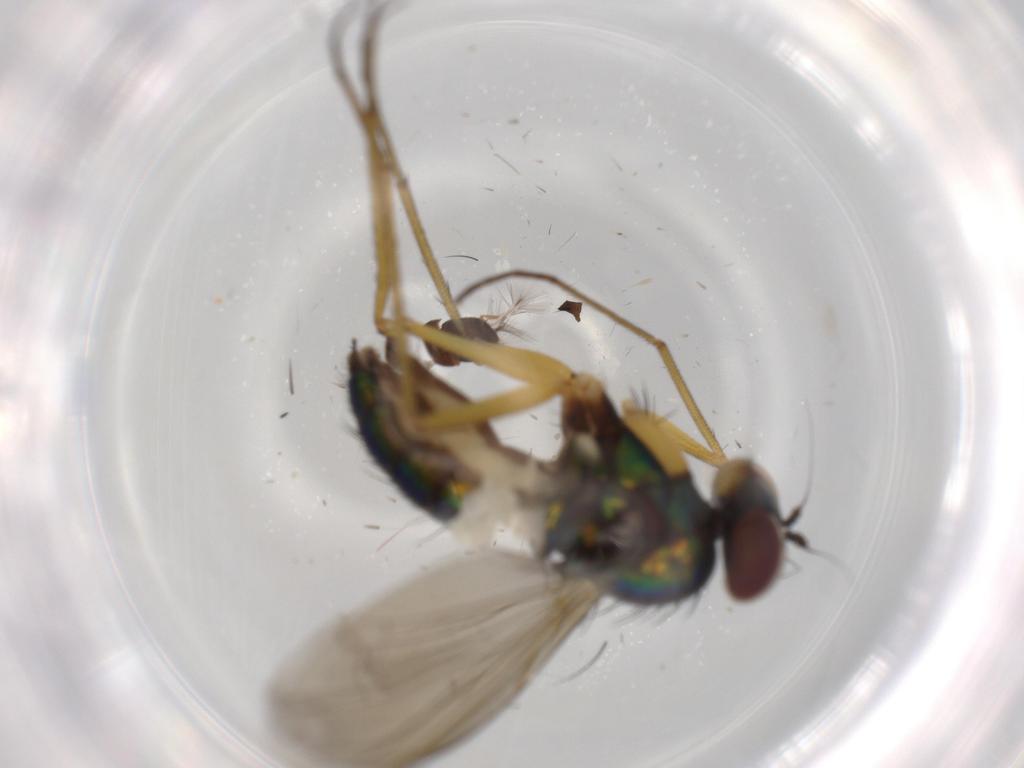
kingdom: Animalia
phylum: Arthropoda
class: Insecta
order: Diptera
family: Dolichopodidae
